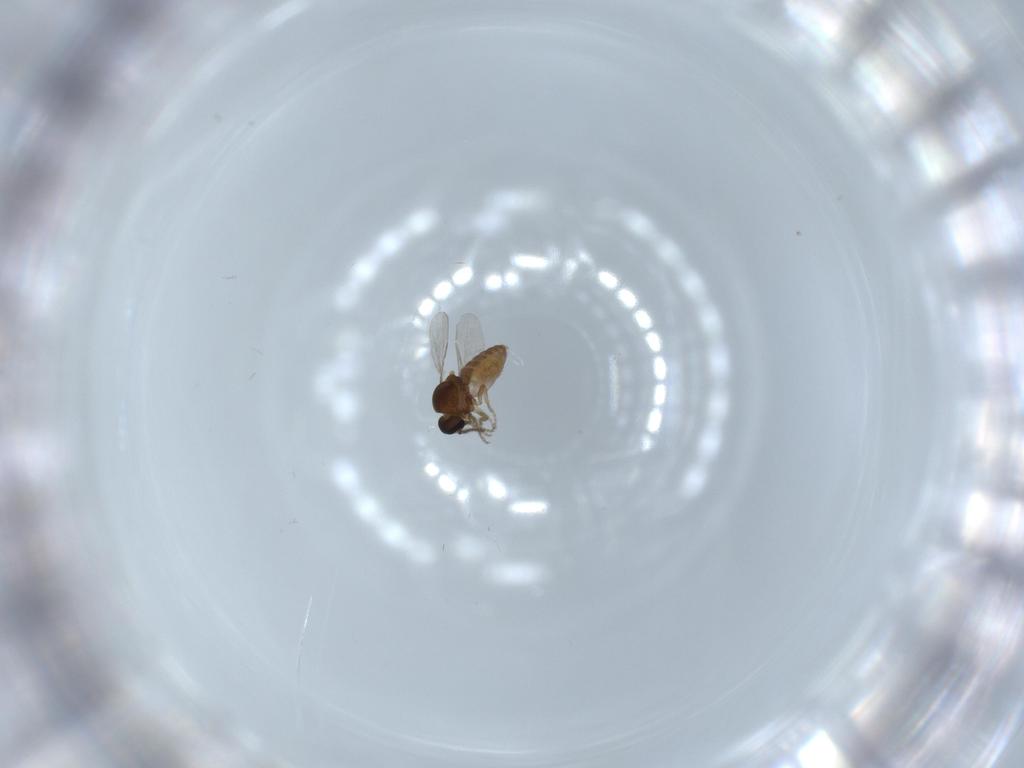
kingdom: Animalia
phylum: Arthropoda
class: Insecta
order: Diptera
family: Ceratopogonidae
